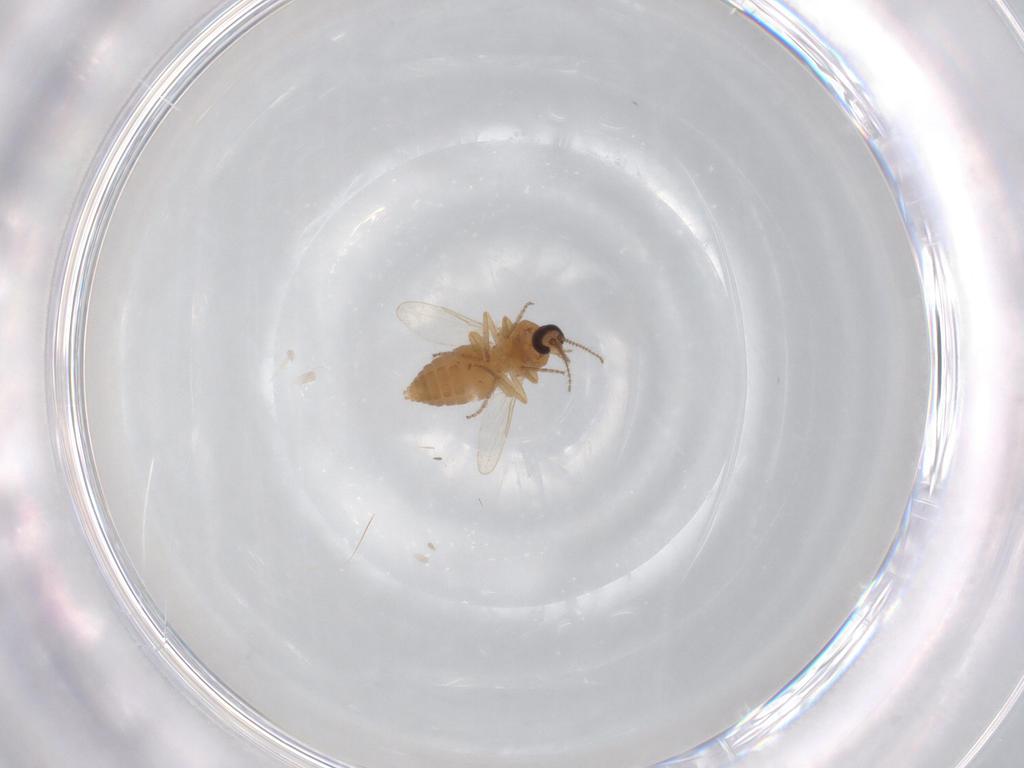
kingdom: Animalia
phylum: Arthropoda
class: Insecta
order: Diptera
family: Ceratopogonidae
